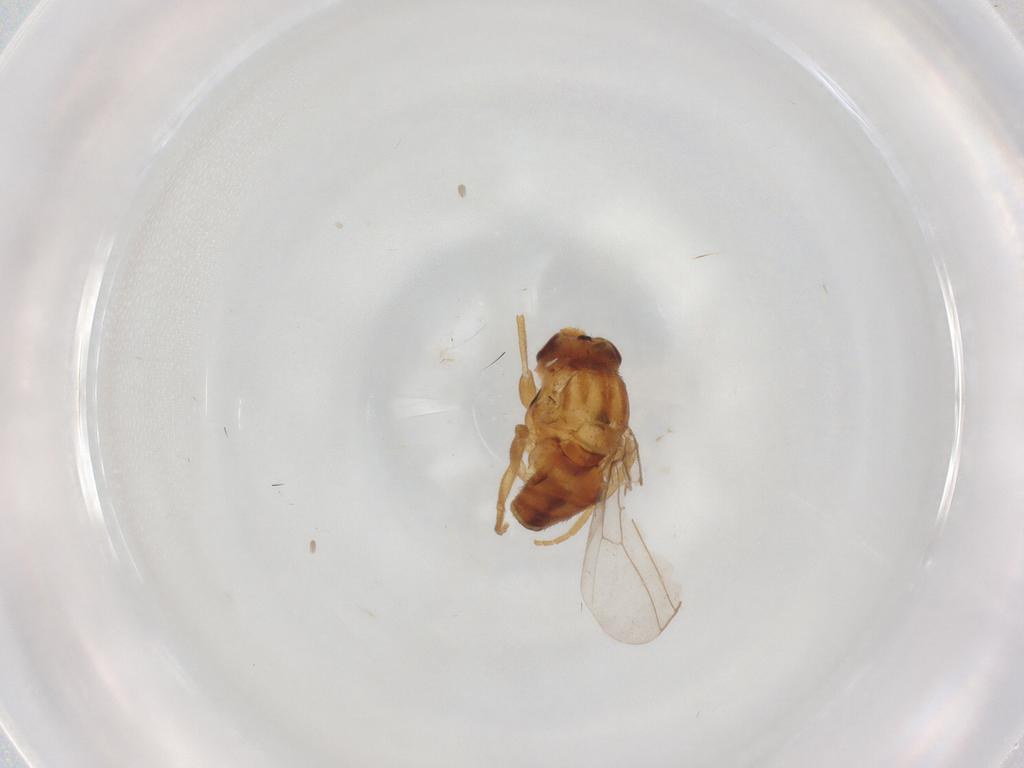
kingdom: Animalia
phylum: Arthropoda
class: Insecta
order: Diptera
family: Chloropidae
